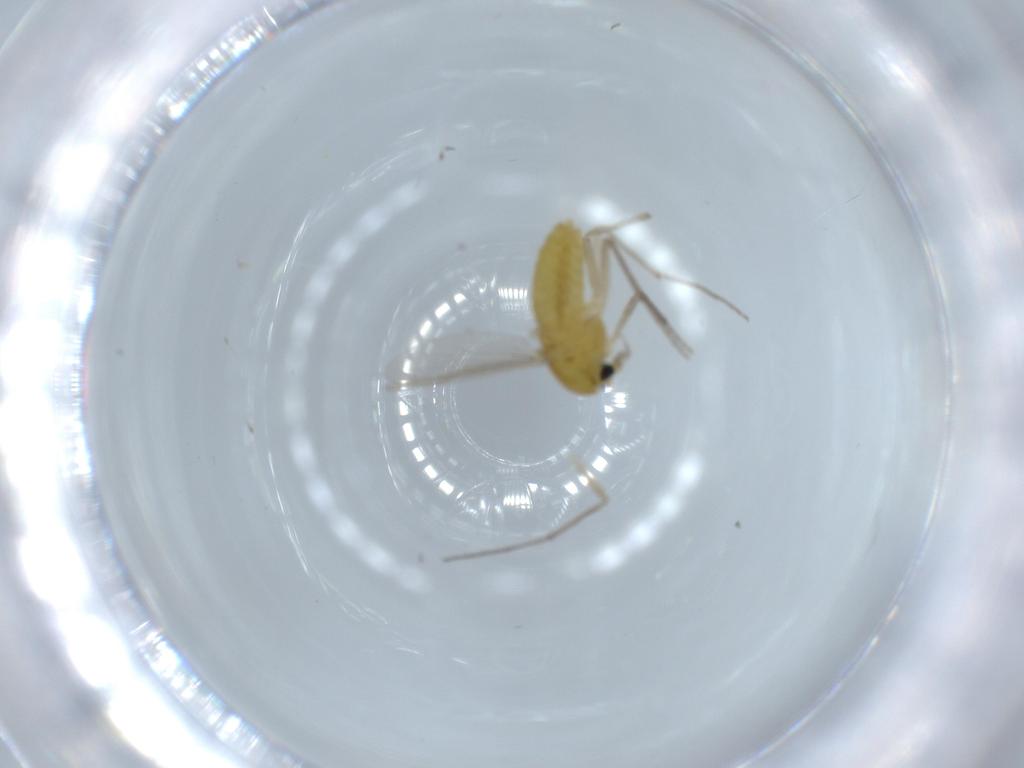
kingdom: Animalia
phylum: Arthropoda
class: Insecta
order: Diptera
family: Chironomidae
